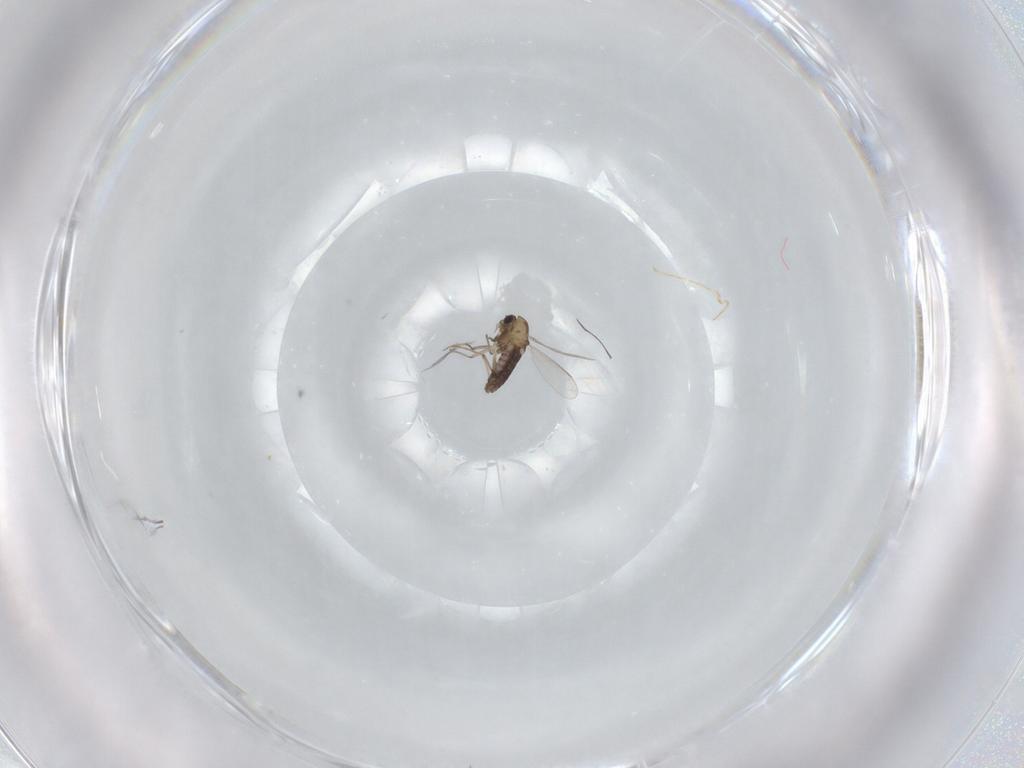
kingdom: Animalia
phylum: Arthropoda
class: Insecta
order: Diptera
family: Chironomidae
